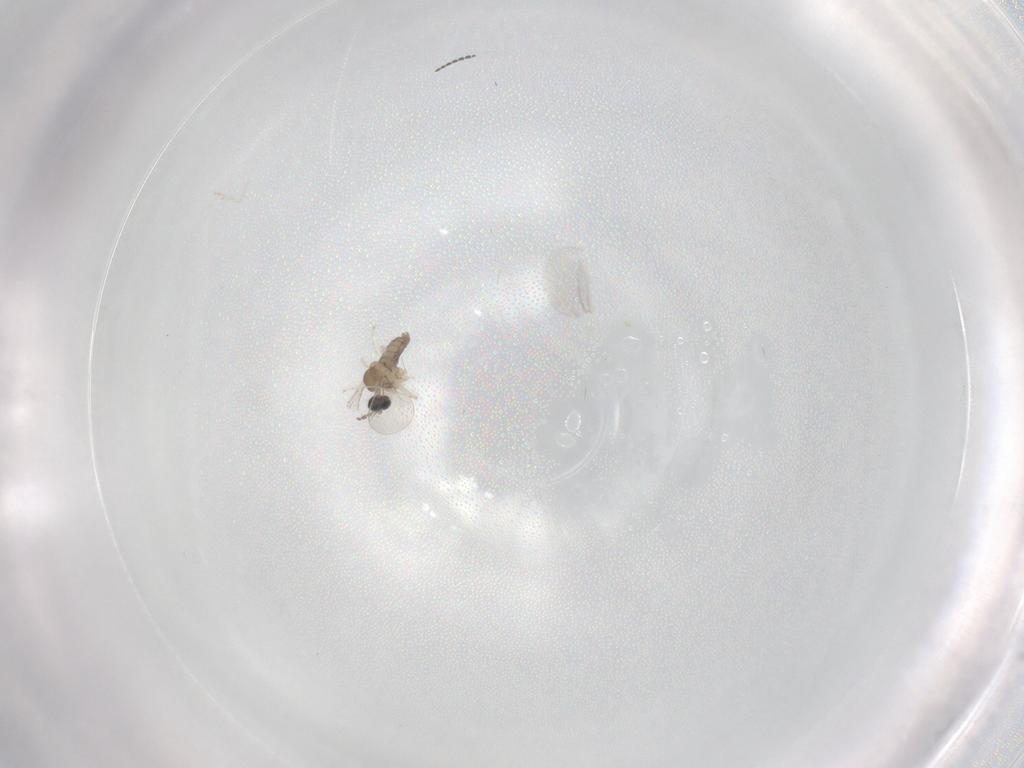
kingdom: Animalia
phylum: Arthropoda
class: Insecta
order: Diptera
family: Cecidomyiidae
